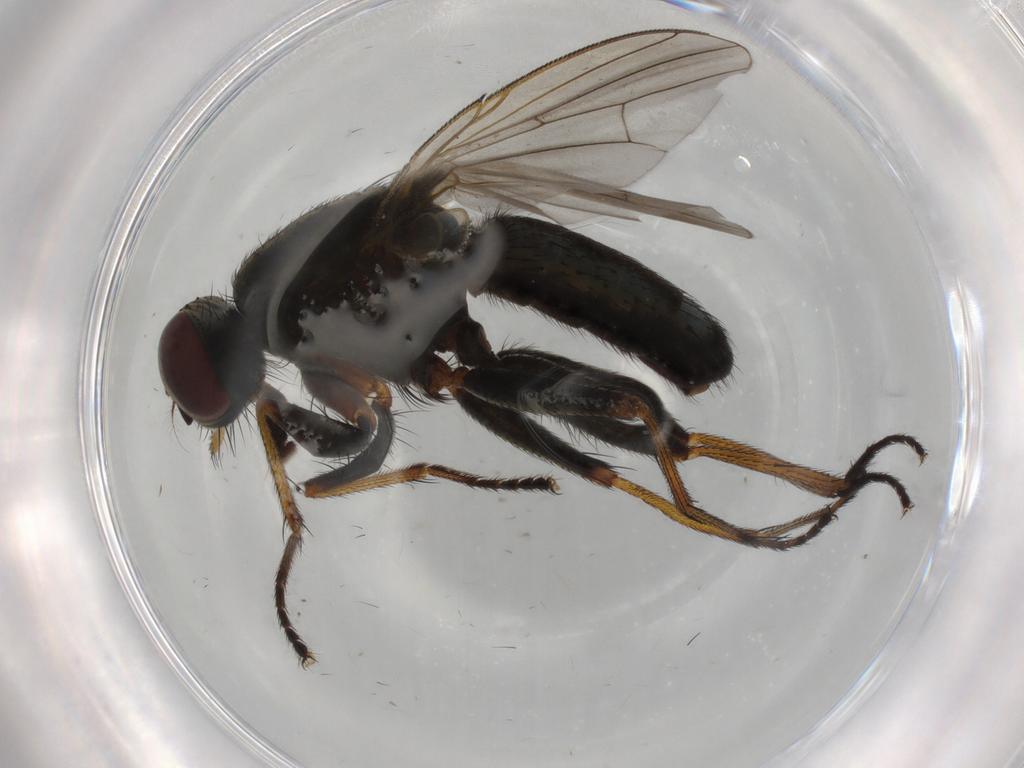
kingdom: Animalia
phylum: Arthropoda
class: Insecta
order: Diptera
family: Muscidae
